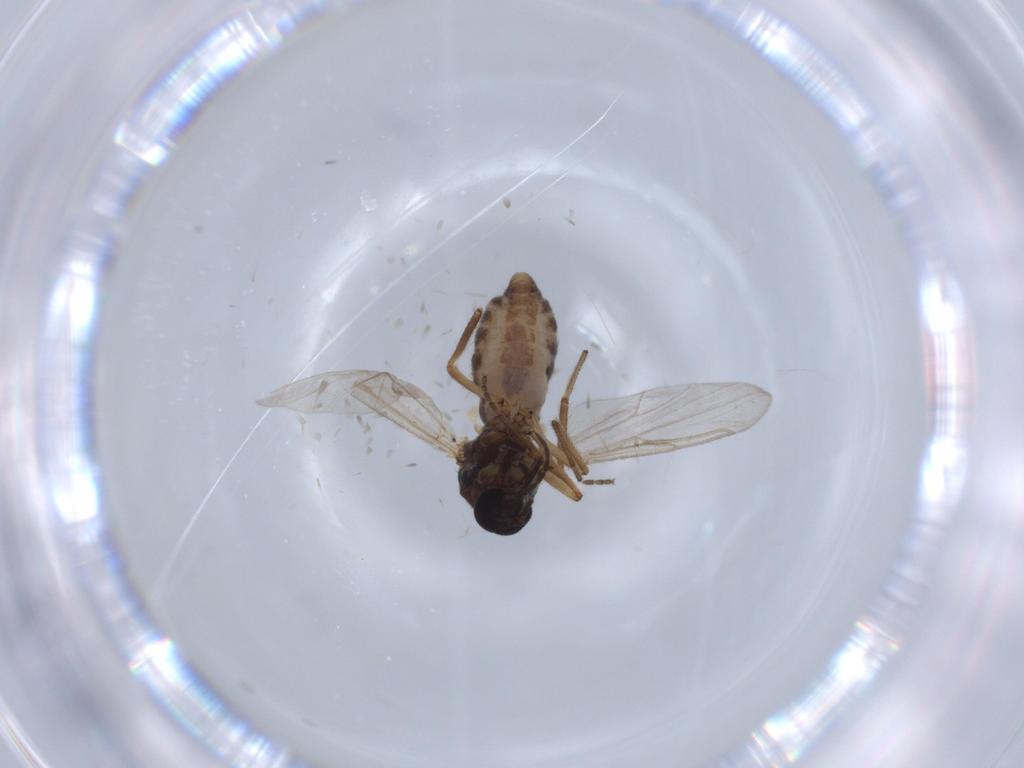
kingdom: Animalia
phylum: Arthropoda
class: Insecta
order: Diptera
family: Ceratopogonidae
